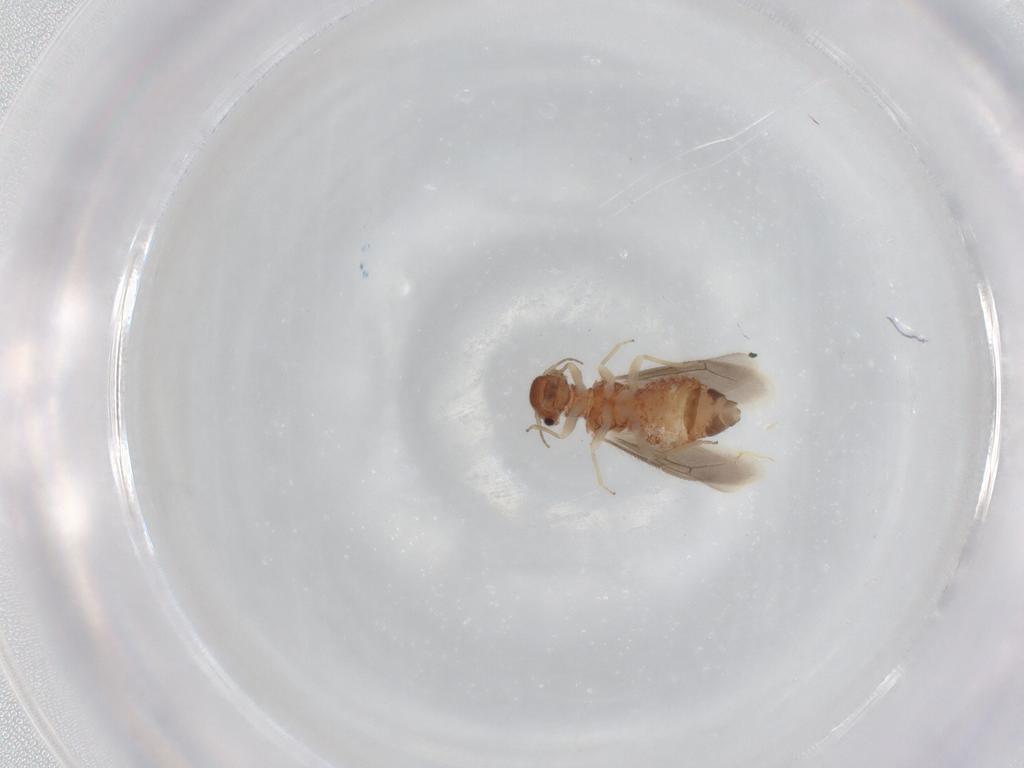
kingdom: Animalia
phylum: Arthropoda
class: Insecta
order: Psocodea
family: Archipsocidae
